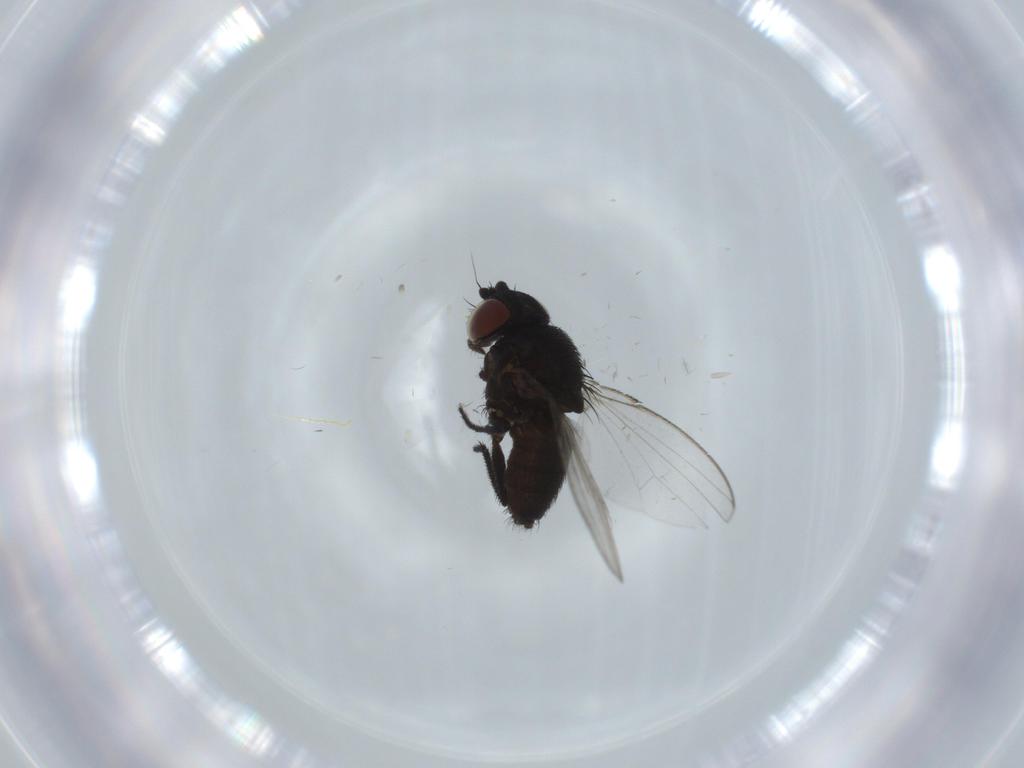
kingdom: Animalia
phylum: Arthropoda
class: Insecta
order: Diptera
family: Milichiidae
